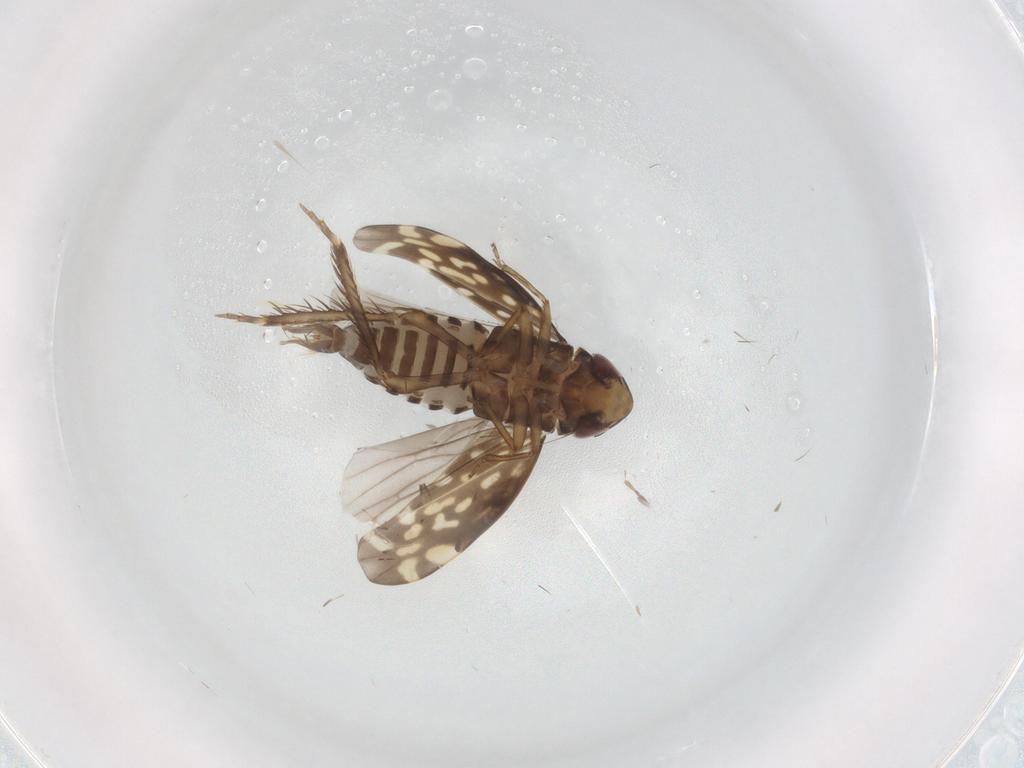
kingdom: Animalia
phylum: Arthropoda
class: Insecta
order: Hemiptera
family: Cicadellidae
